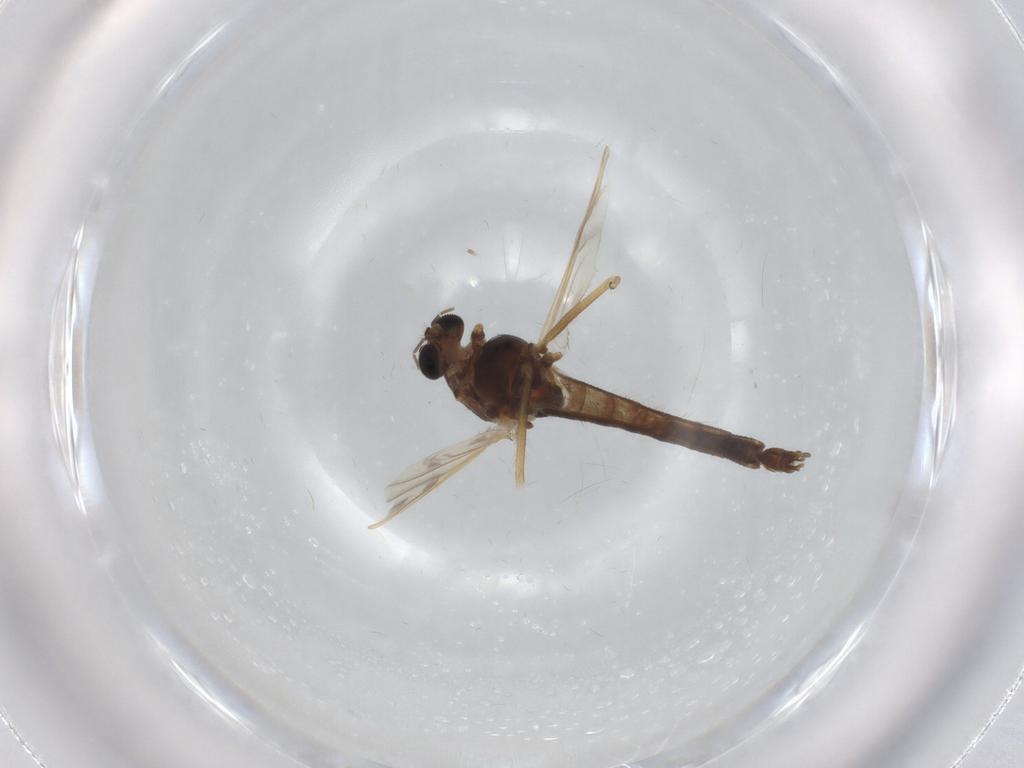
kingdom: Animalia
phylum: Arthropoda
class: Insecta
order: Diptera
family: Chironomidae
